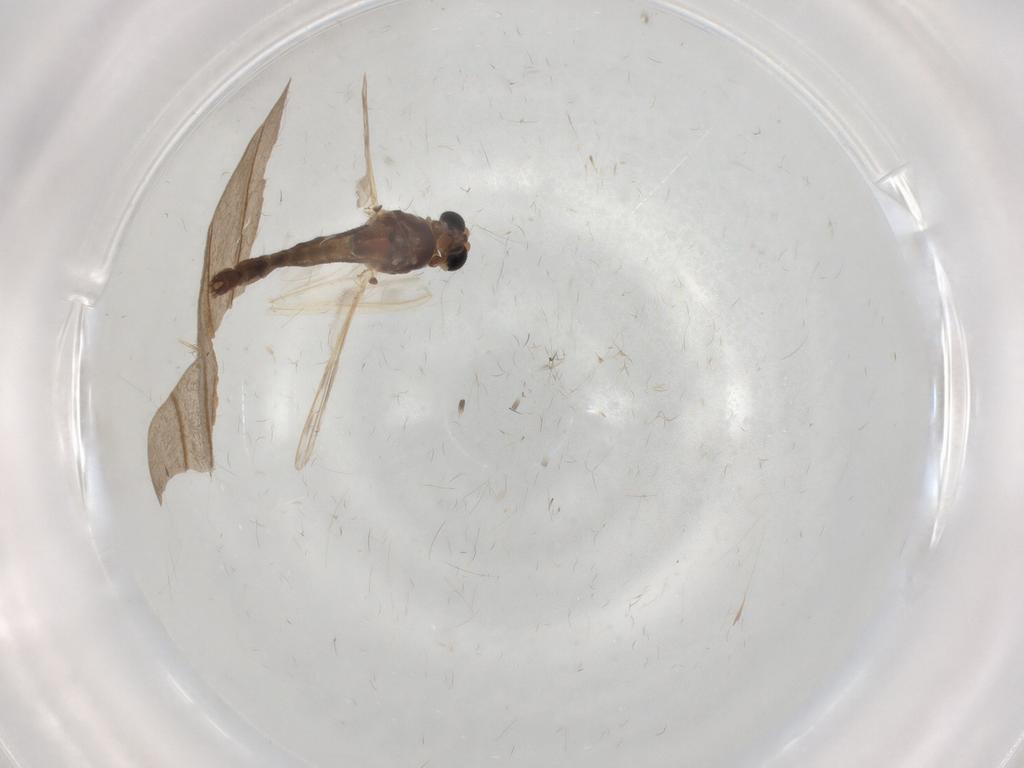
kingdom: Animalia
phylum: Arthropoda
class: Insecta
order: Diptera
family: Chironomidae
